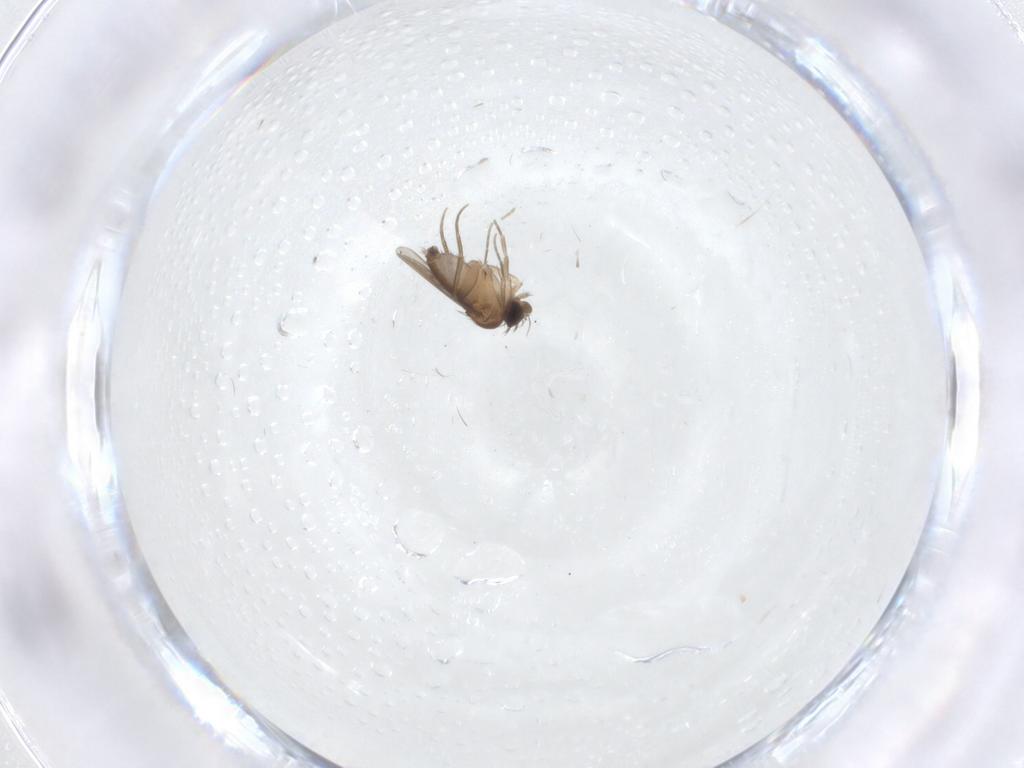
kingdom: Animalia
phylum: Arthropoda
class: Insecta
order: Diptera
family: Phoridae
